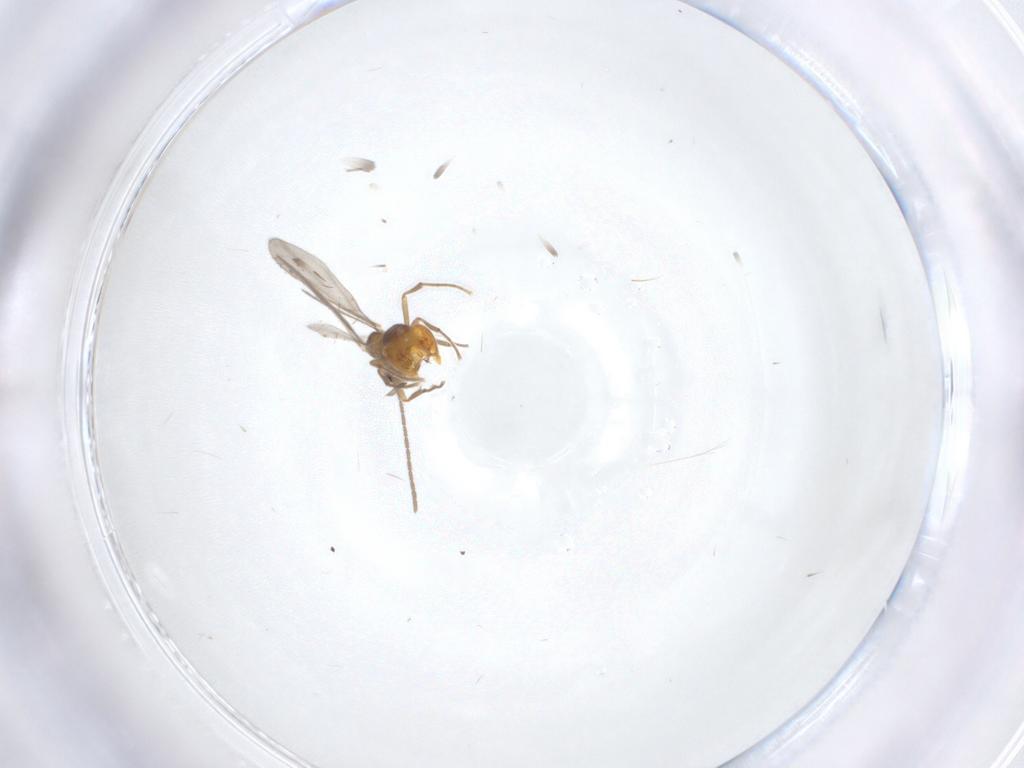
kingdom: Animalia
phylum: Arthropoda
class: Insecta
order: Hymenoptera
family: Formicidae
